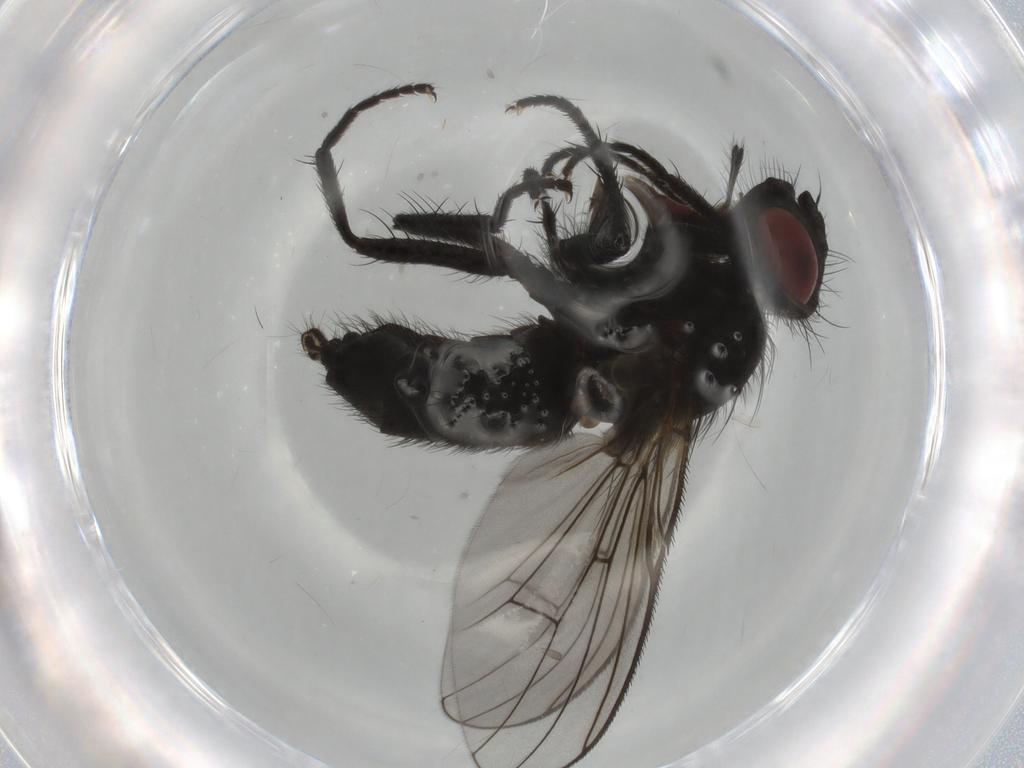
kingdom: Animalia
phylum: Arthropoda
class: Insecta
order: Diptera
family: Muscidae
